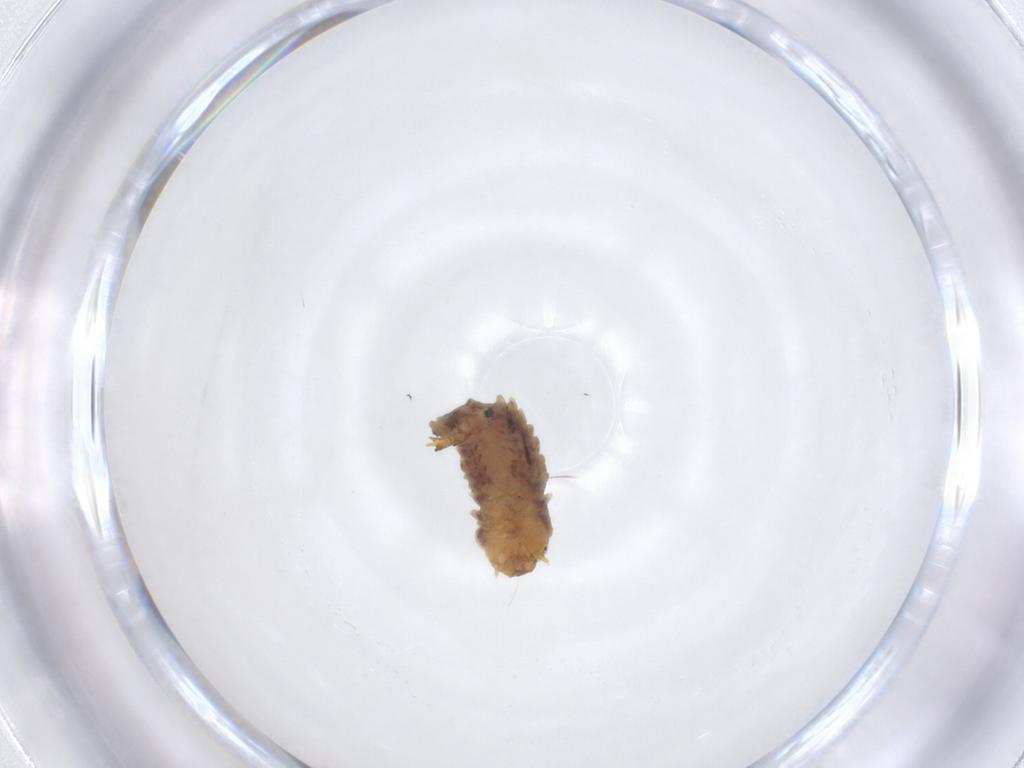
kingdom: Animalia
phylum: Arthropoda
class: Insecta
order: Coleoptera
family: Nitidulidae
